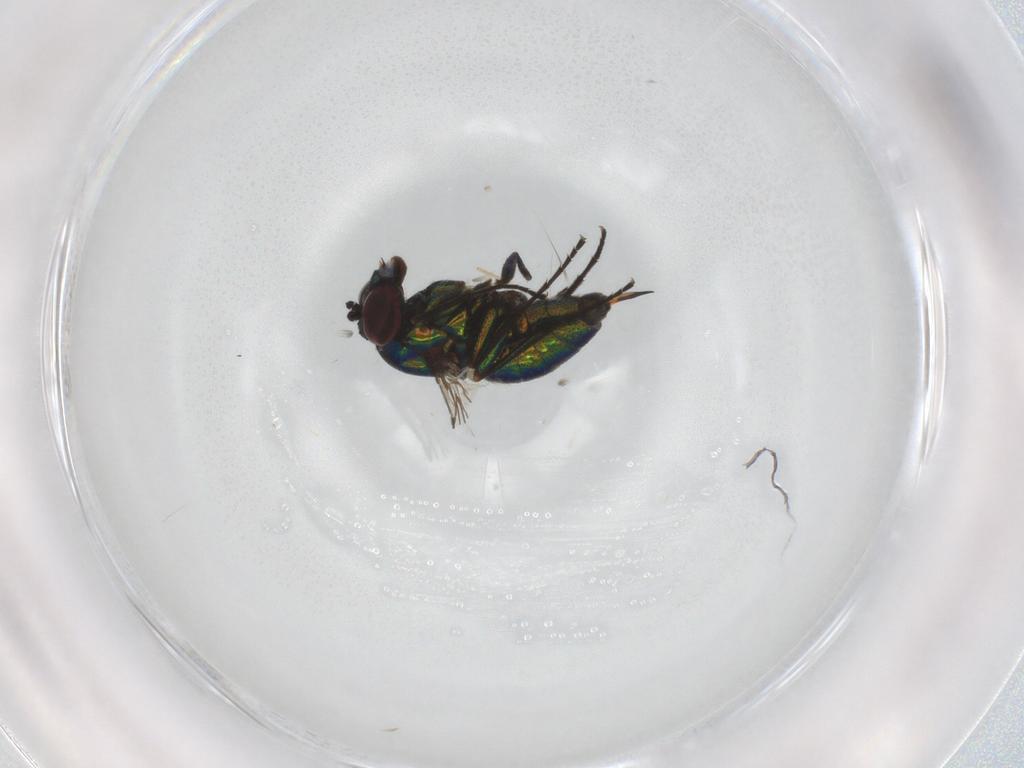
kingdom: Animalia
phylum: Arthropoda
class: Insecta
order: Diptera
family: Dolichopodidae
